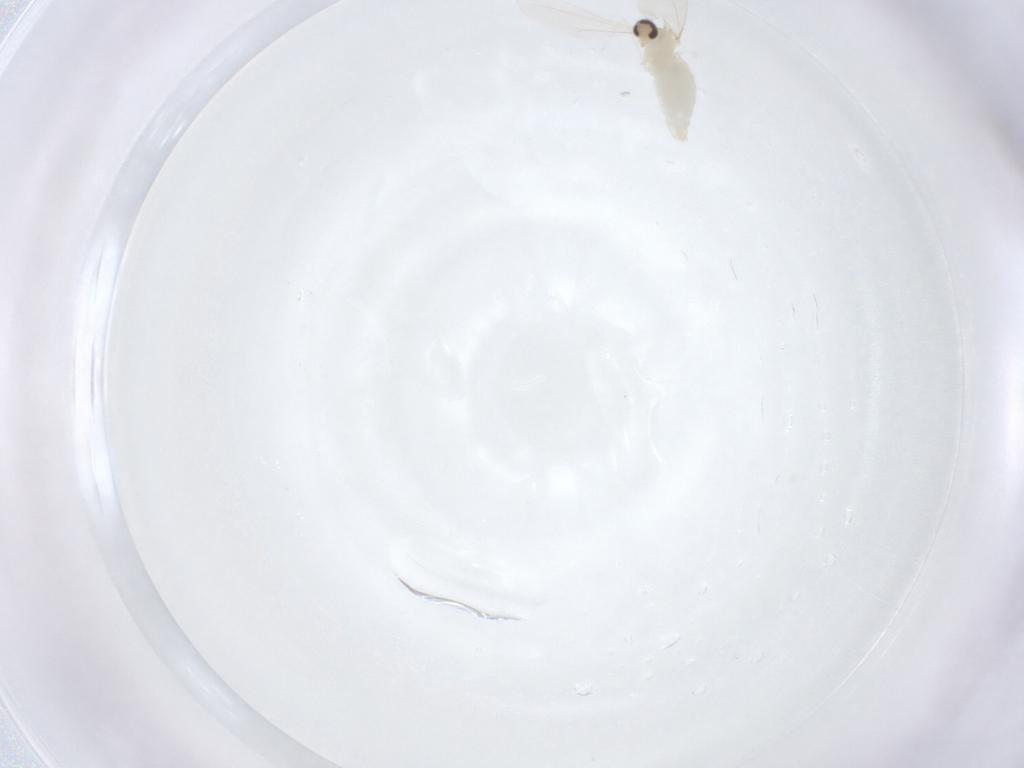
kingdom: Animalia
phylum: Arthropoda
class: Insecta
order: Diptera
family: Cecidomyiidae
